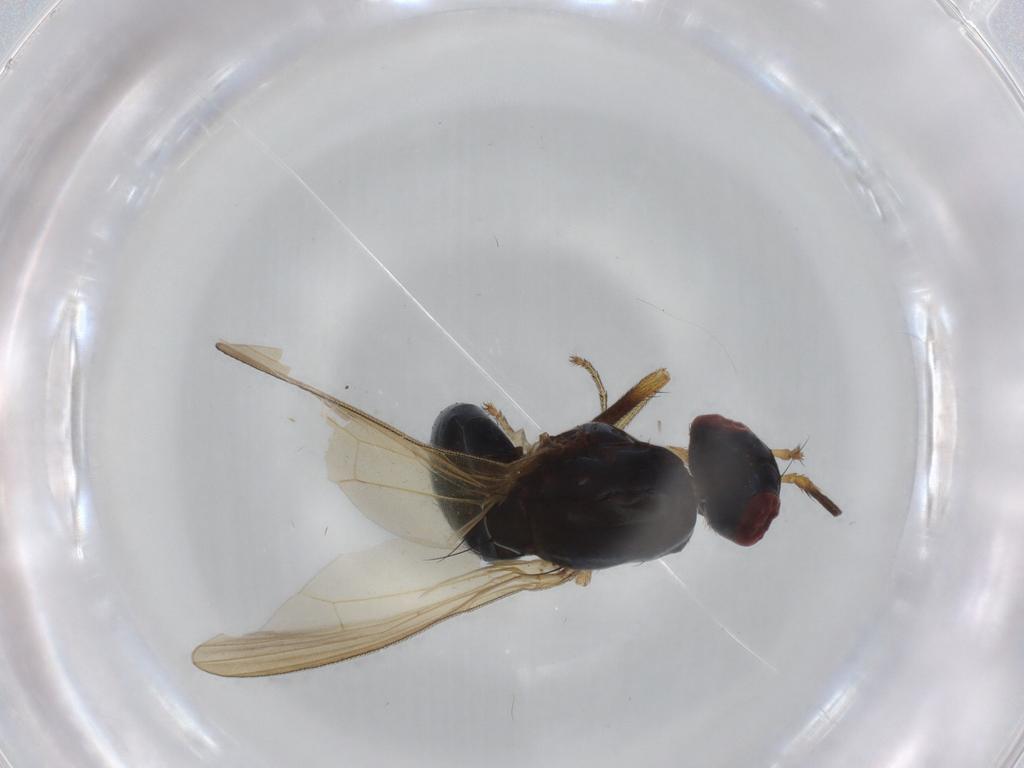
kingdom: Animalia
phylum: Arthropoda
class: Insecta
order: Diptera
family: Lauxaniidae
